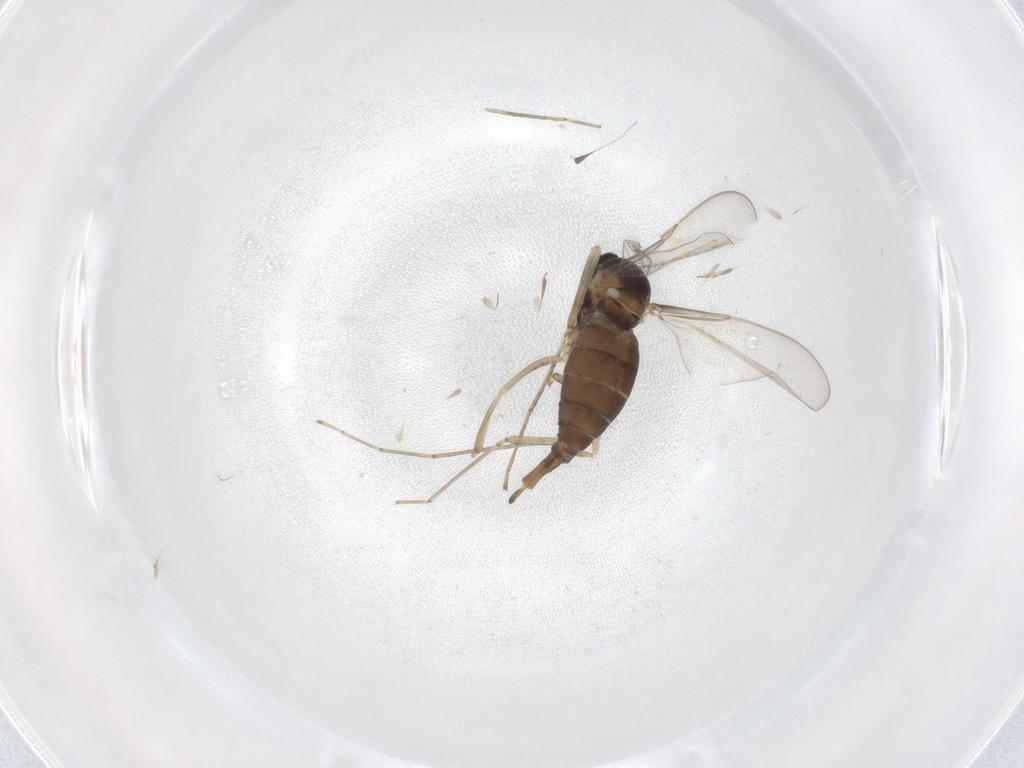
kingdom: Animalia
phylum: Arthropoda
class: Insecta
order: Diptera
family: Cecidomyiidae
